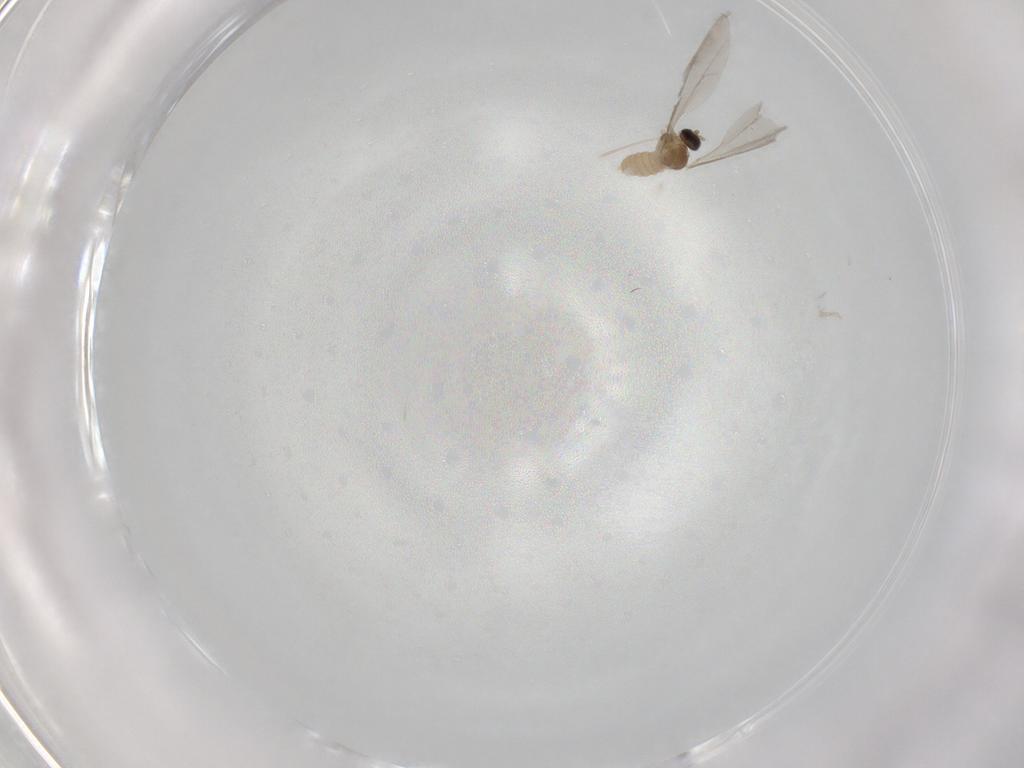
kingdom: Animalia
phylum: Arthropoda
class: Insecta
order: Diptera
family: Cecidomyiidae
